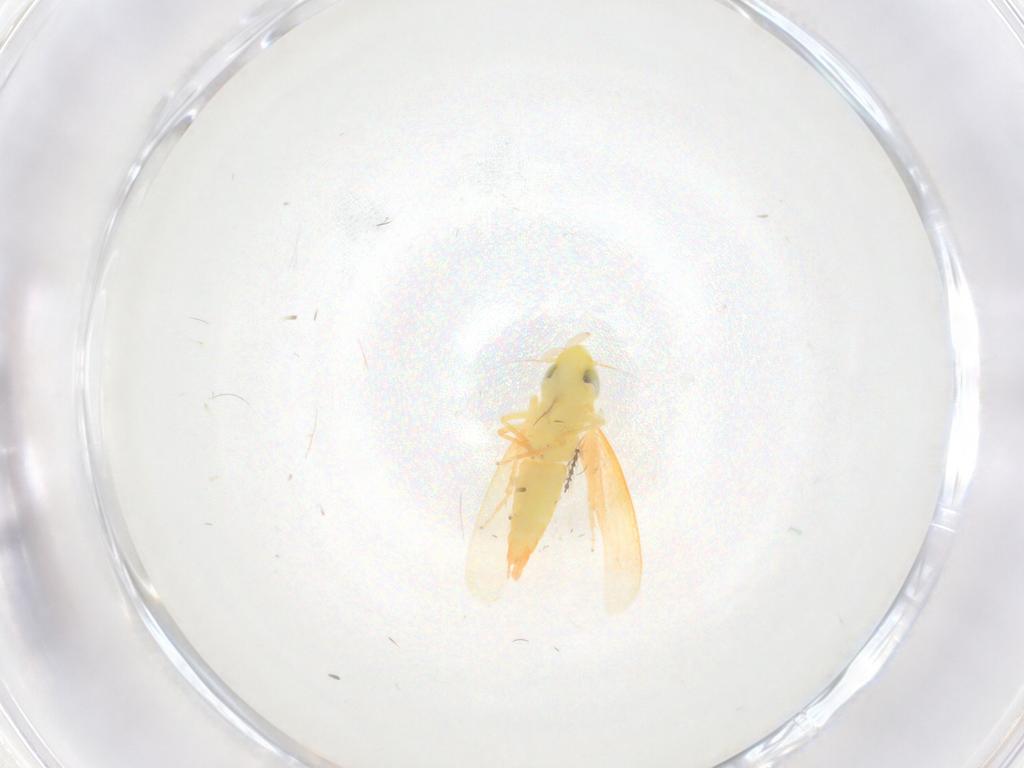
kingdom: Animalia
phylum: Arthropoda
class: Insecta
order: Hemiptera
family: Cicadellidae
